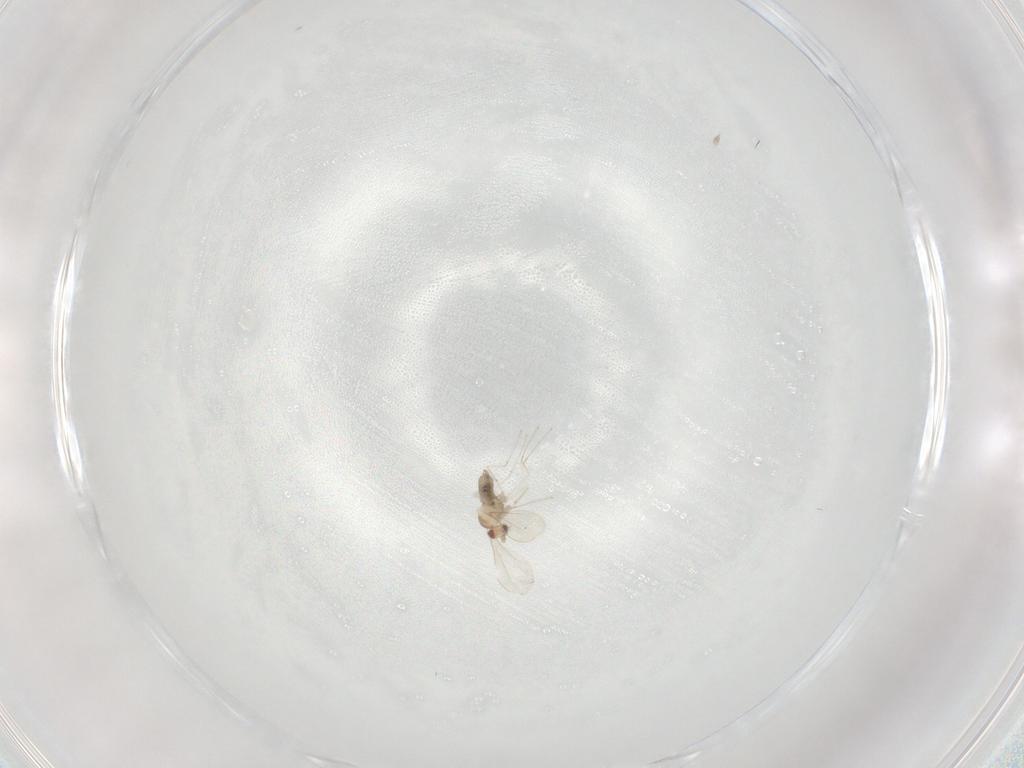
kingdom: Animalia
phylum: Arthropoda
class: Insecta
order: Diptera
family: Cecidomyiidae
